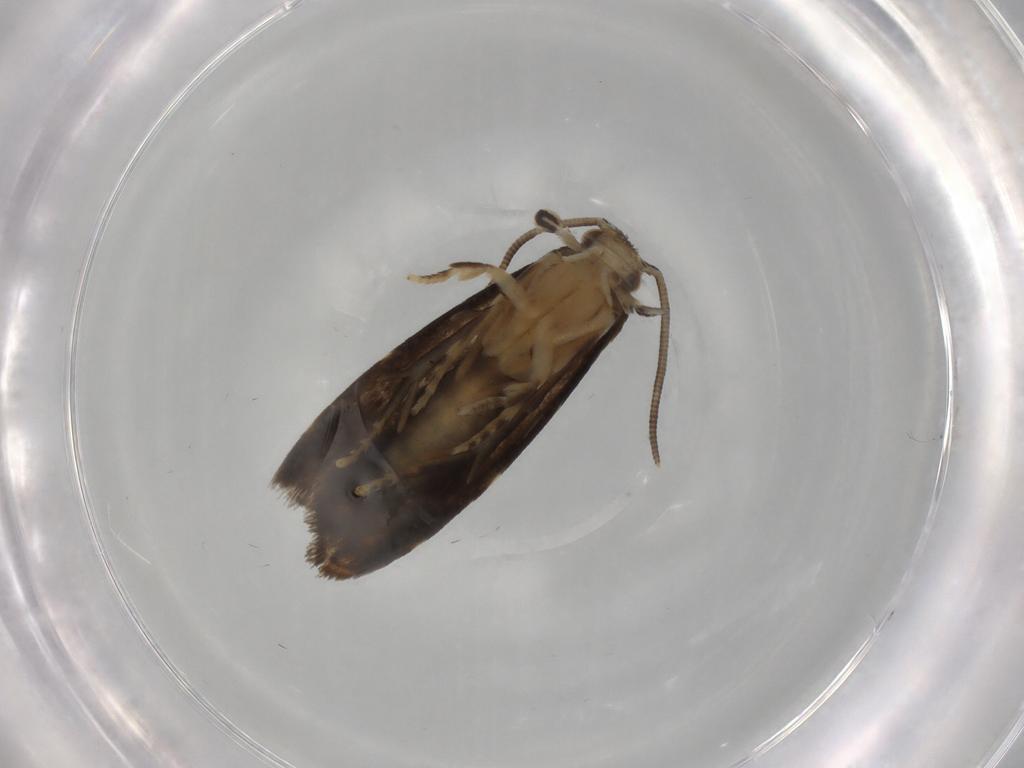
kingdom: Animalia
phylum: Arthropoda
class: Insecta
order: Lepidoptera
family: Dryadaulidae
